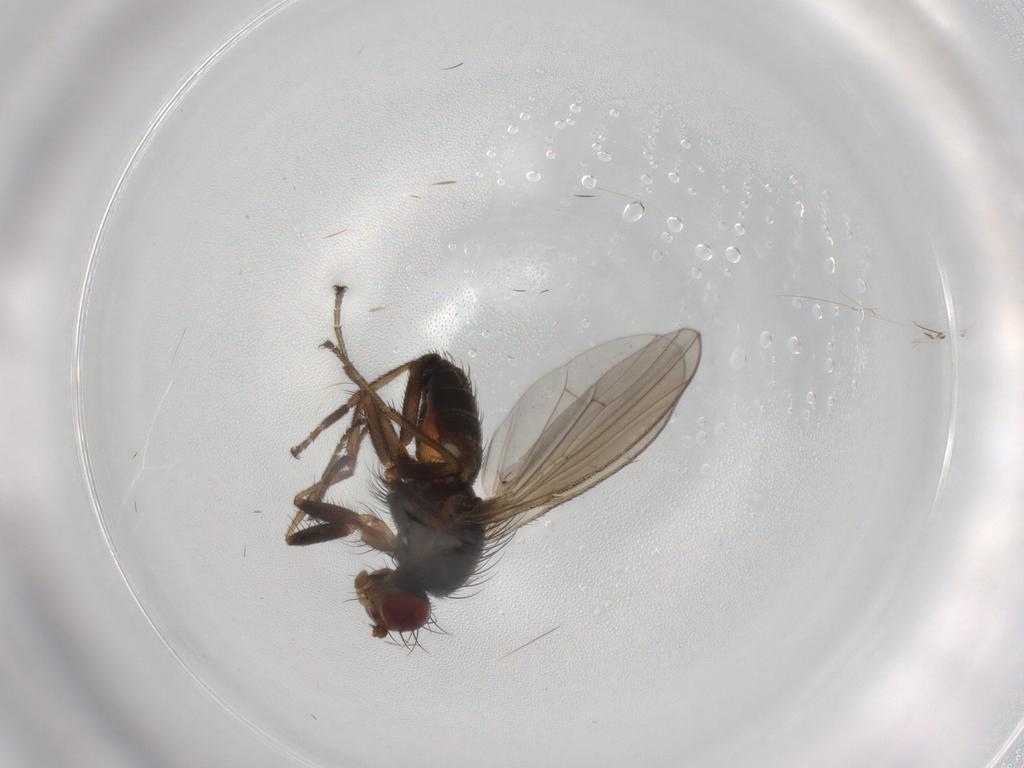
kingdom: Animalia
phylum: Arthropoda
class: Insecta
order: Diptera
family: Heleomyzidae
